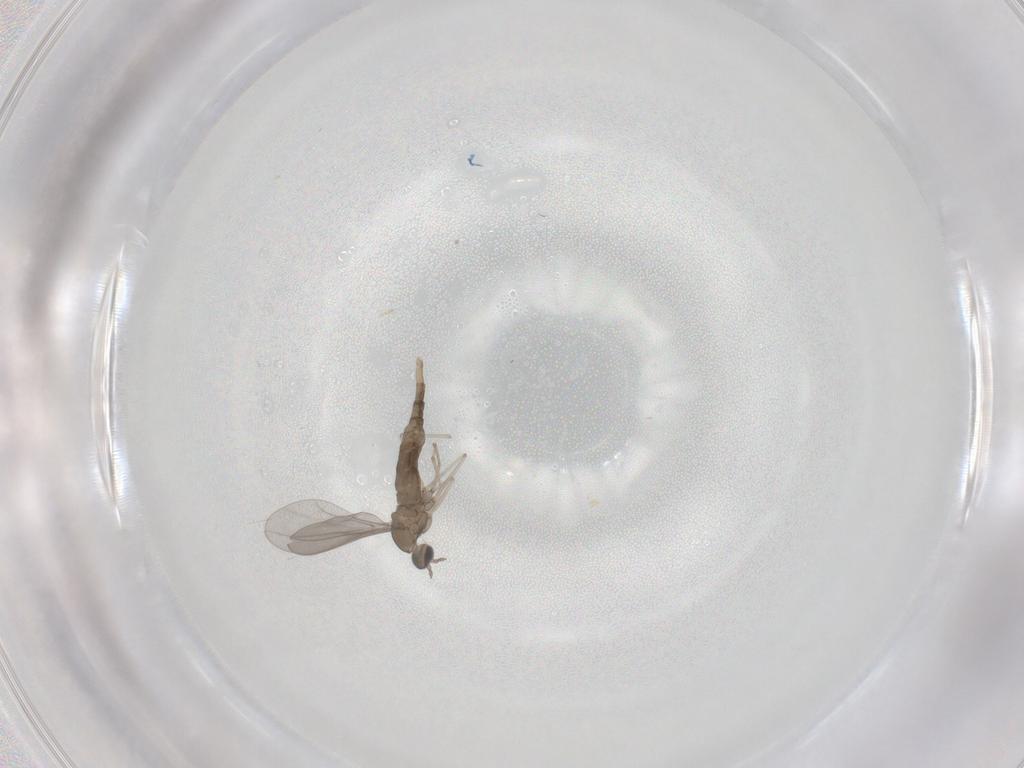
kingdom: Animalia
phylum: Arthropoda
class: Insecta
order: Diptera
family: Cecidomyiidae
